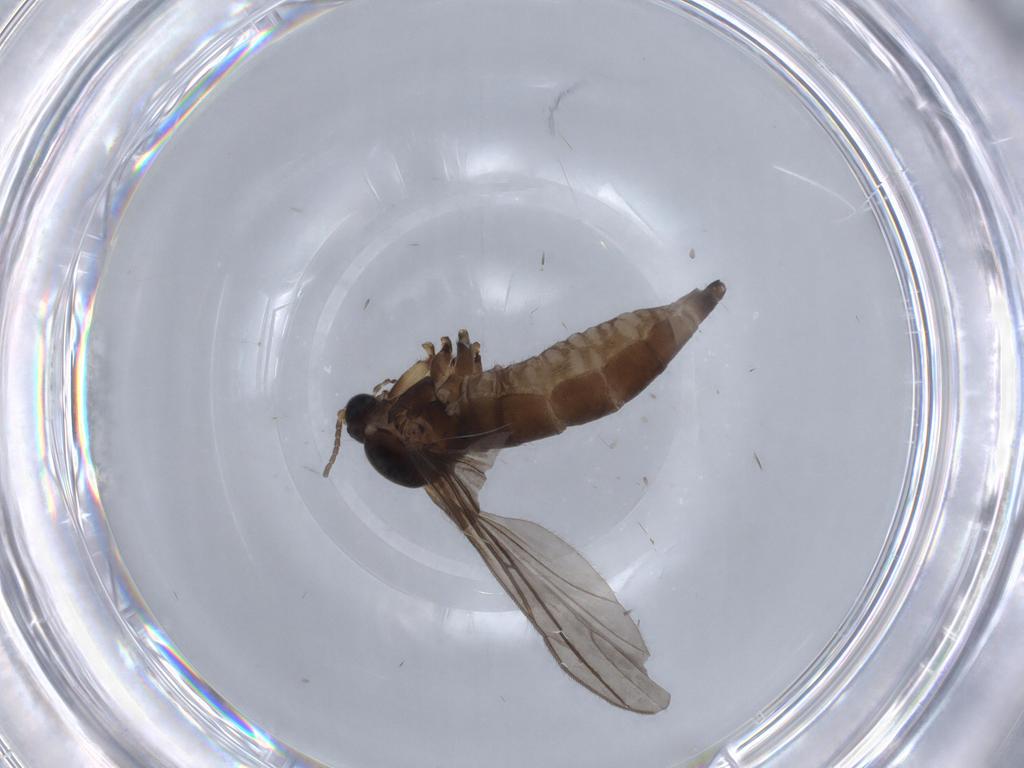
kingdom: Animalia
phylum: Arthropoda
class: Insecta
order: Diptera
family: Sciaridae
